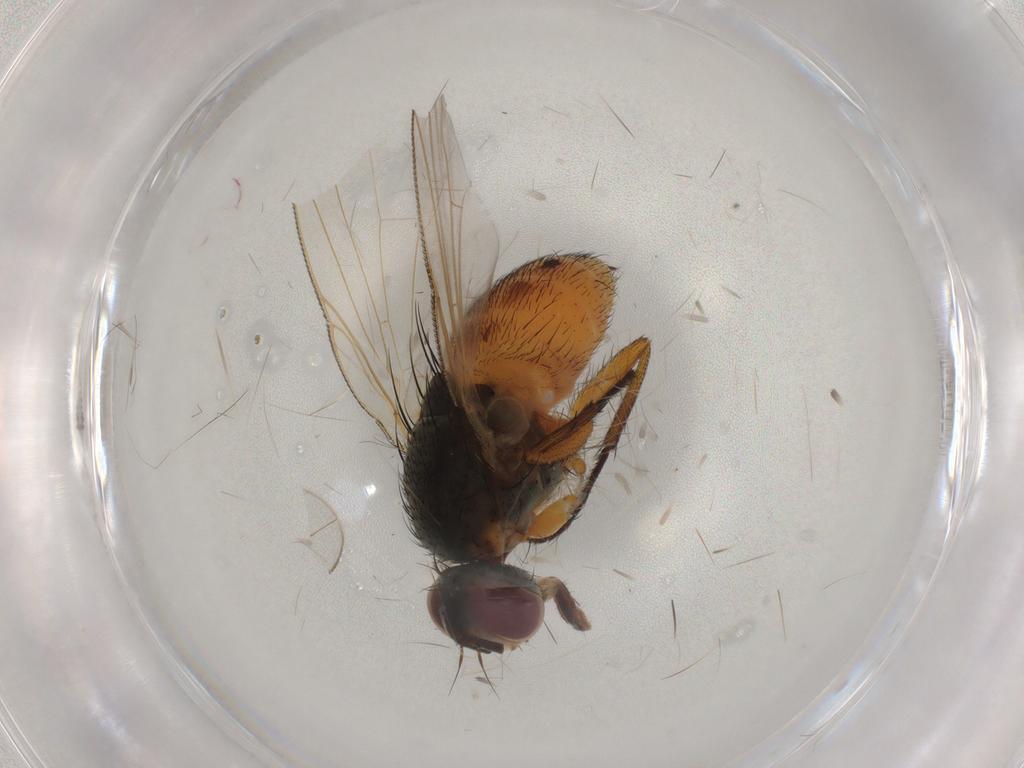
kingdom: Animalia
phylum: Arthropoda
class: Insecta
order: Diptera
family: Muscidae
